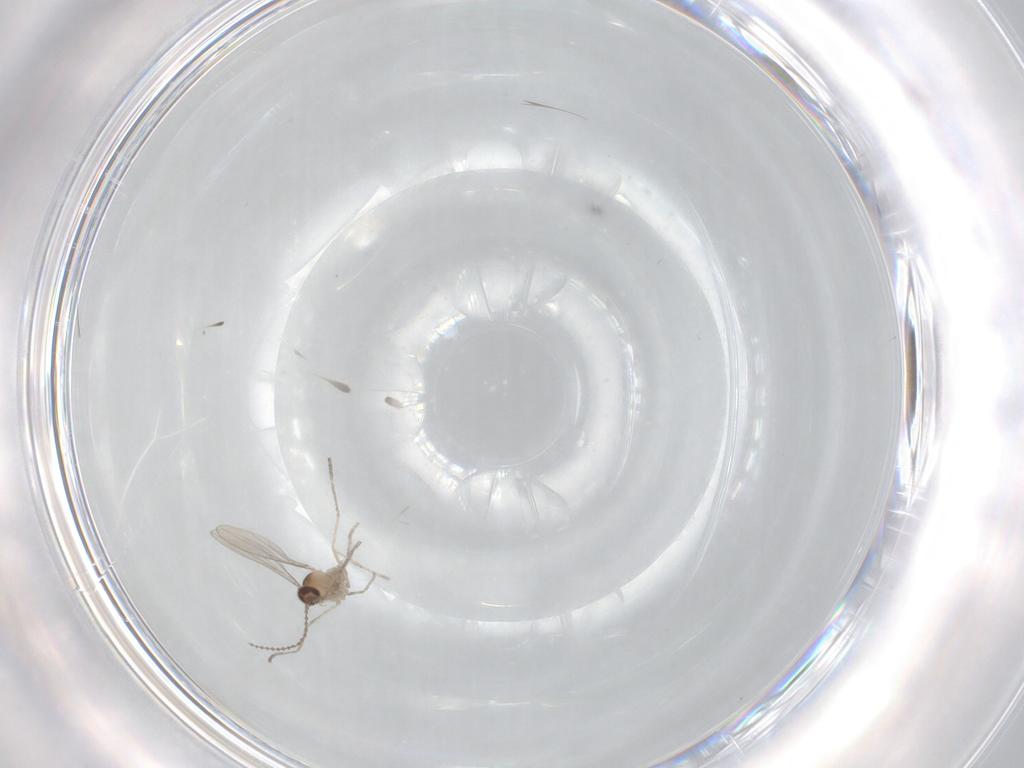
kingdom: Animalia
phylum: Arthropoda
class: Insecta
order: Diptera
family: Cecidomyiidae
